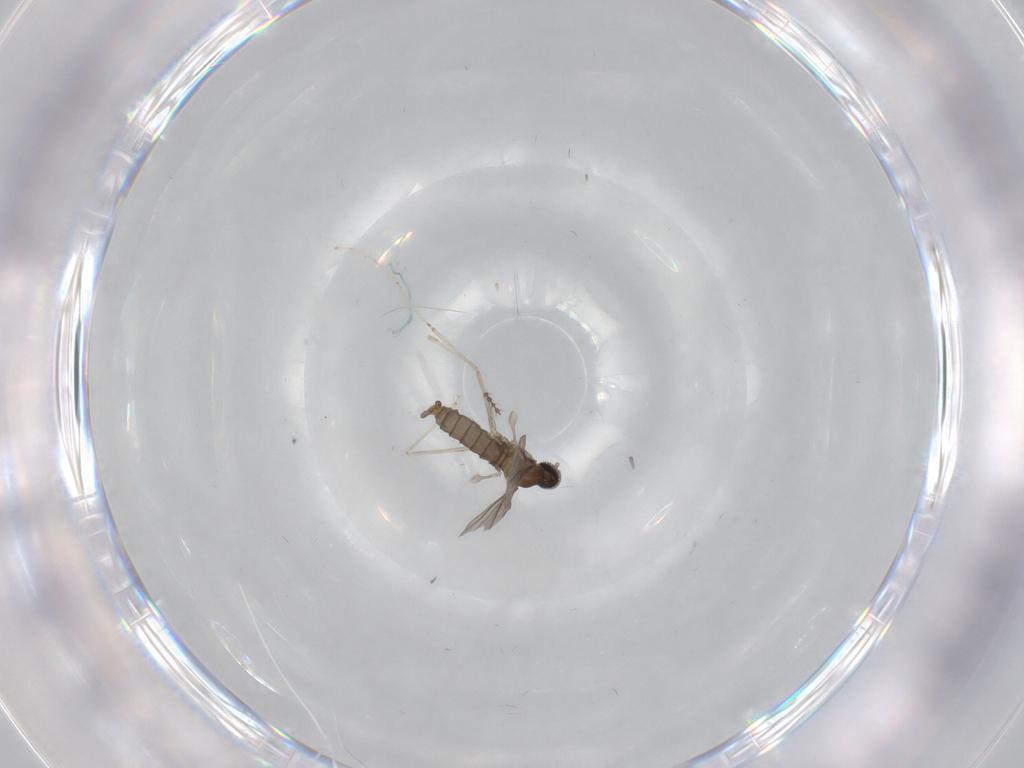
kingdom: Animalia
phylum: Arthropoda
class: Insecta
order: Diptera
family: Cecidomyiidae
